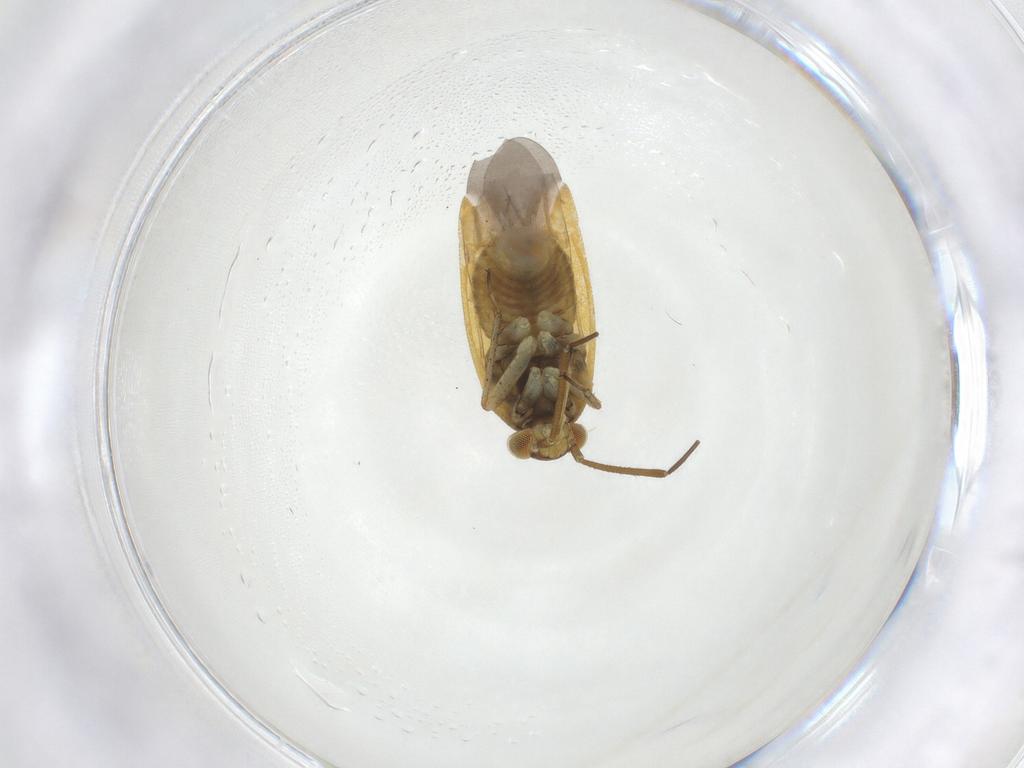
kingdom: Animalia
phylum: Arthropoda
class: Insecta
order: Hemiptera
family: Miridae
